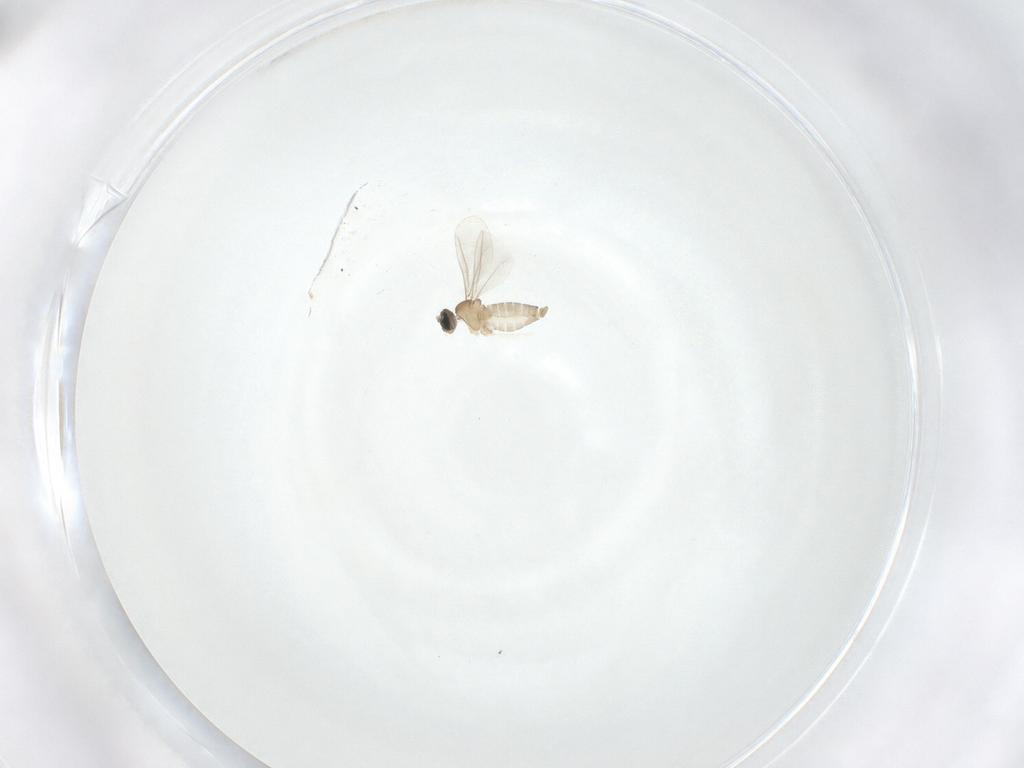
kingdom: Animalia
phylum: Arthropoda
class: Insecta
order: Diptera
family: Cecidomyiidae
